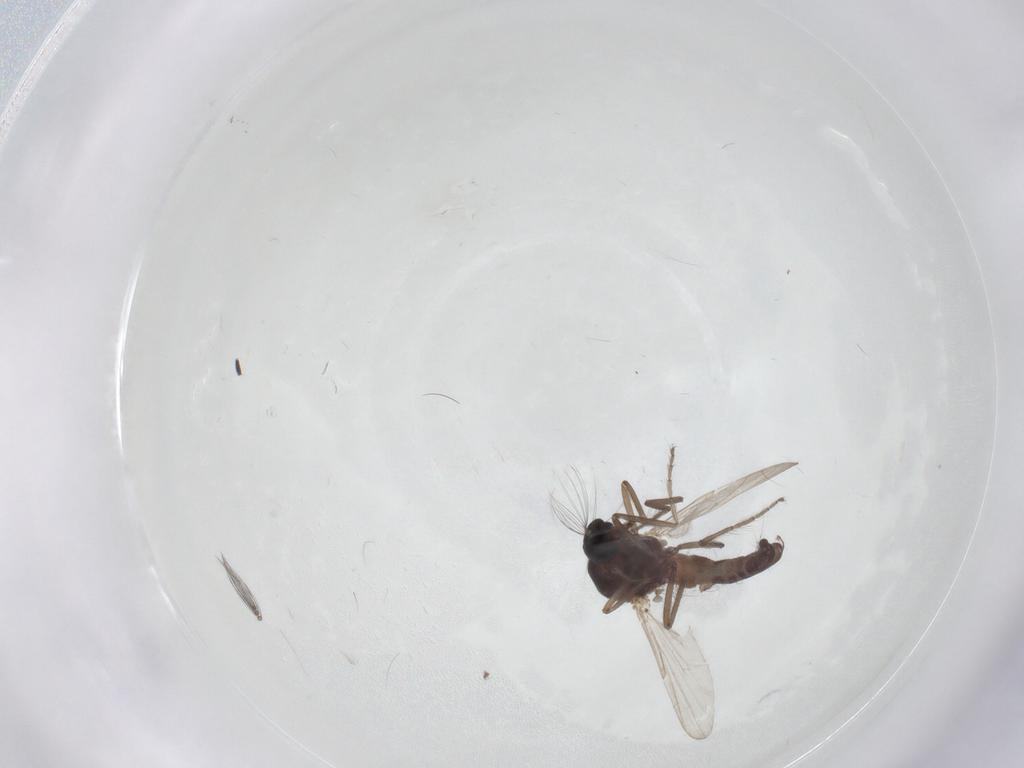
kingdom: Animalia
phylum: Arthropoda
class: Insecta
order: Diptera
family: Ceratopogonidae
